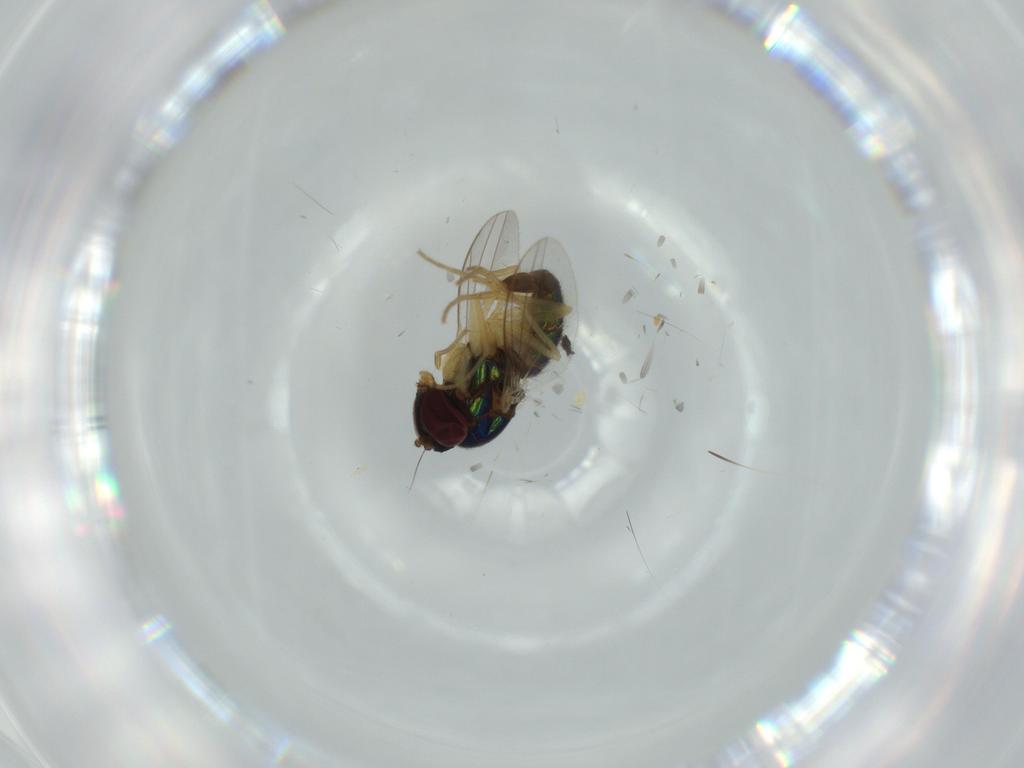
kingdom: Animalia
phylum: Arthropoda
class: Insecta
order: Diptera
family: Dolichopodidae
